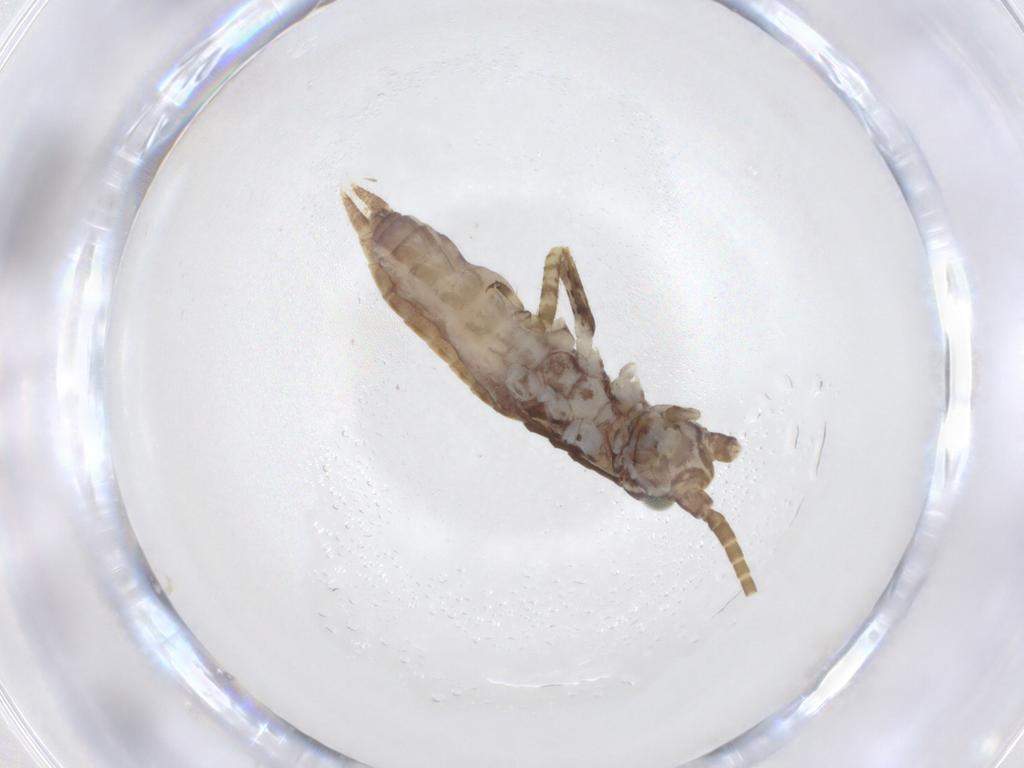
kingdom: Animalia
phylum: Arthropoda
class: Insecta
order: Orthoptera
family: Gryllidae
